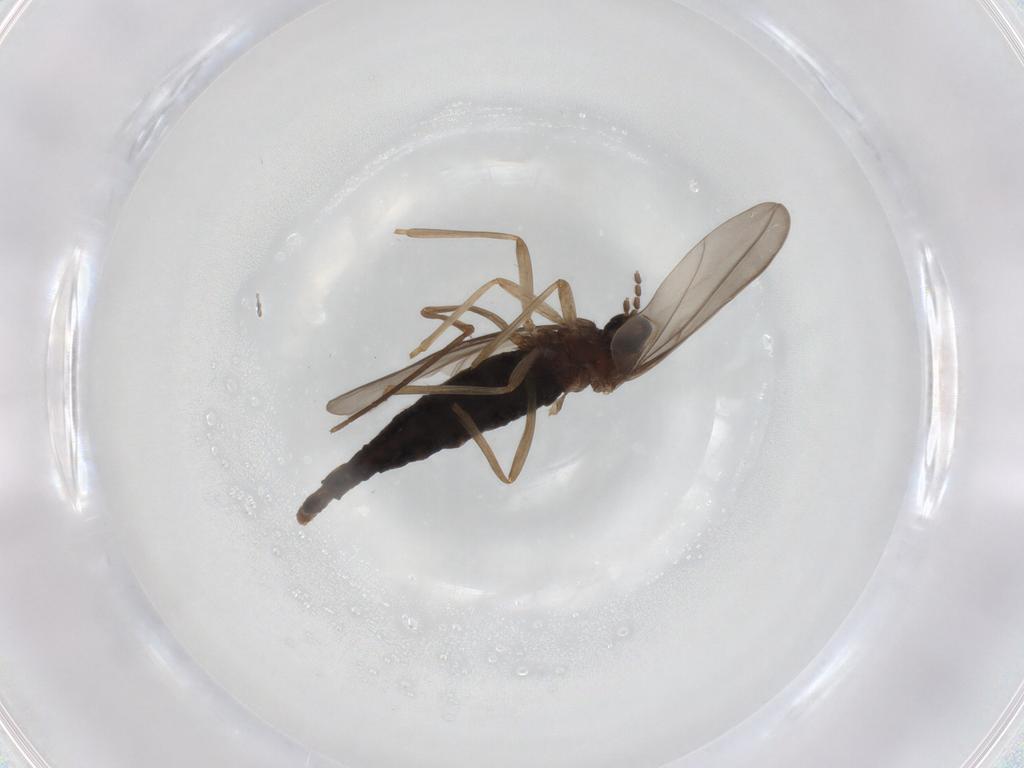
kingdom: Animalia
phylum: Arthropoda
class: Insecta
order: Diptera
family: Cecidomyiidae
